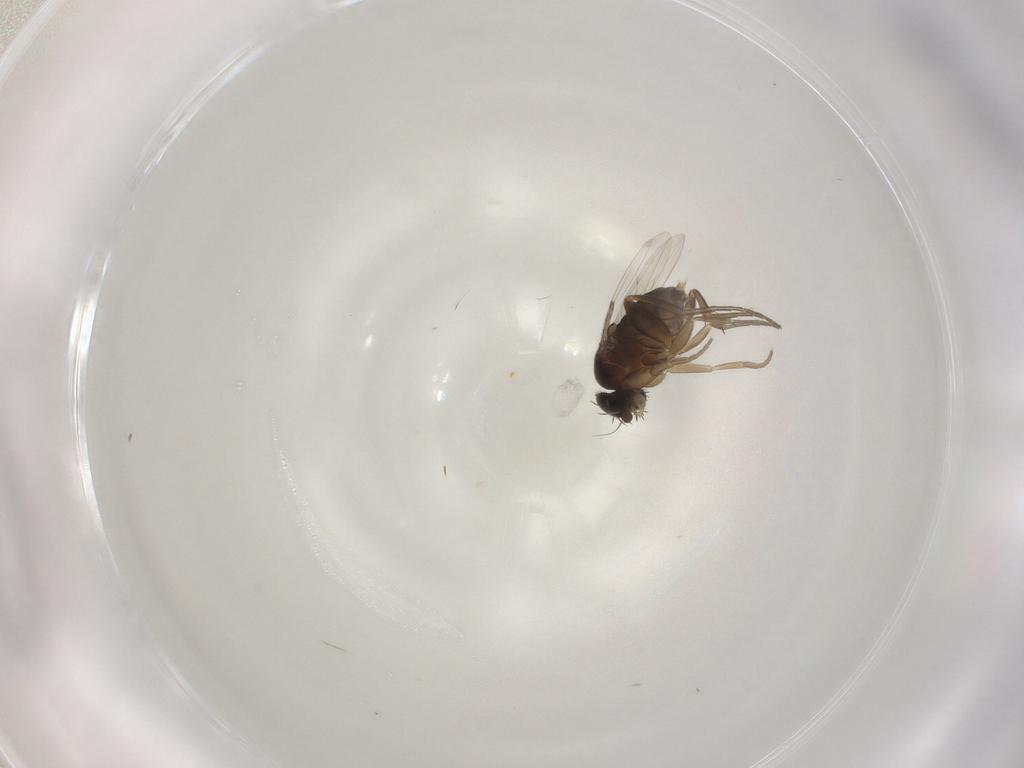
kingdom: Animalia
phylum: Arthropoda
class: Insecta
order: Diptera
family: Phoridae
